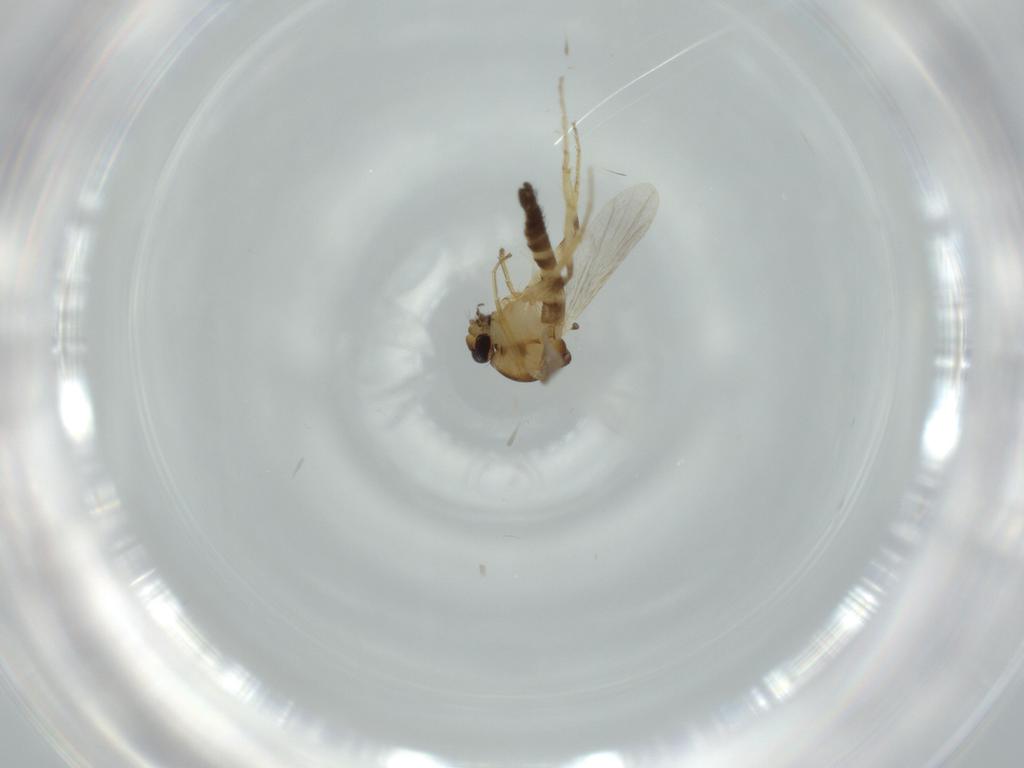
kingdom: Animalia
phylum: Arthropoda
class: Insecta
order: Diptera
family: Ceratopogonidae
